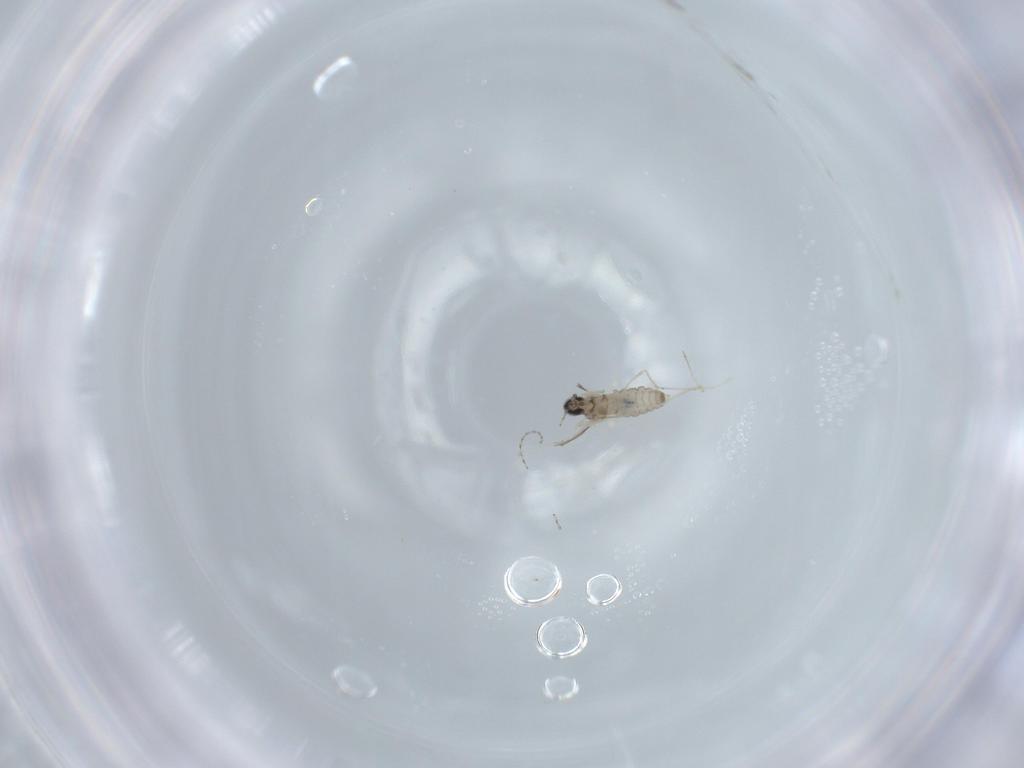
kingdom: Animalia
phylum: Arthropoda
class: Insecta
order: Diptera
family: Cecidomyiidae
